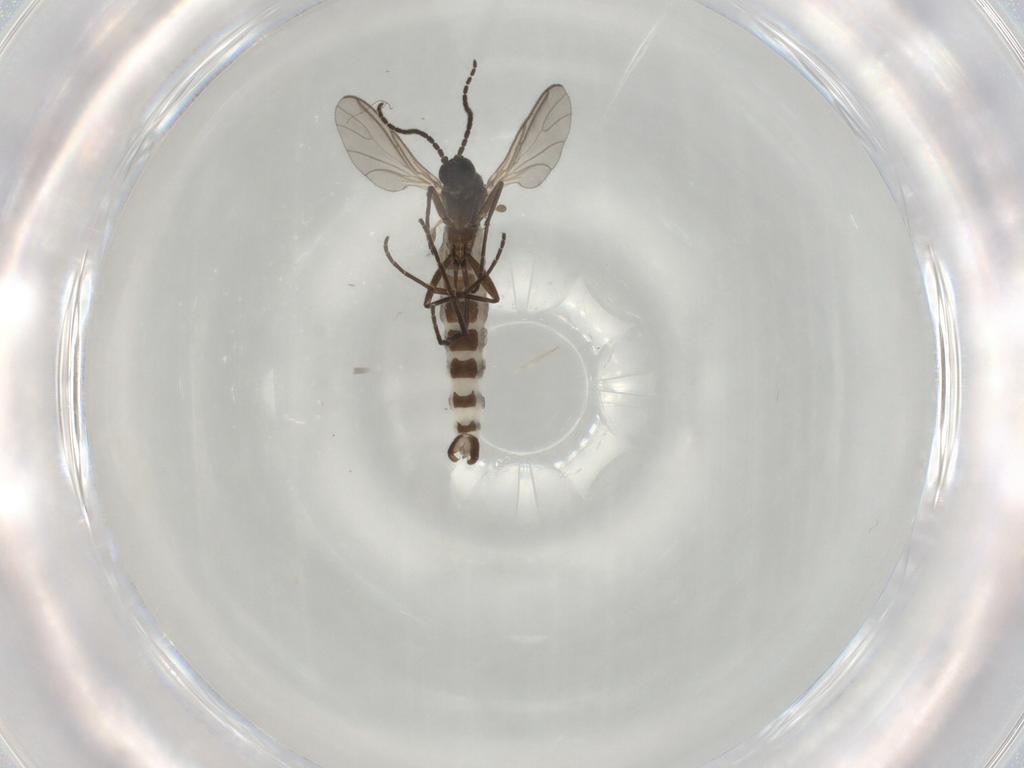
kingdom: Animalia
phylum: Arthropoda
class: Insecta
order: Diptera
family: Sciaridae
